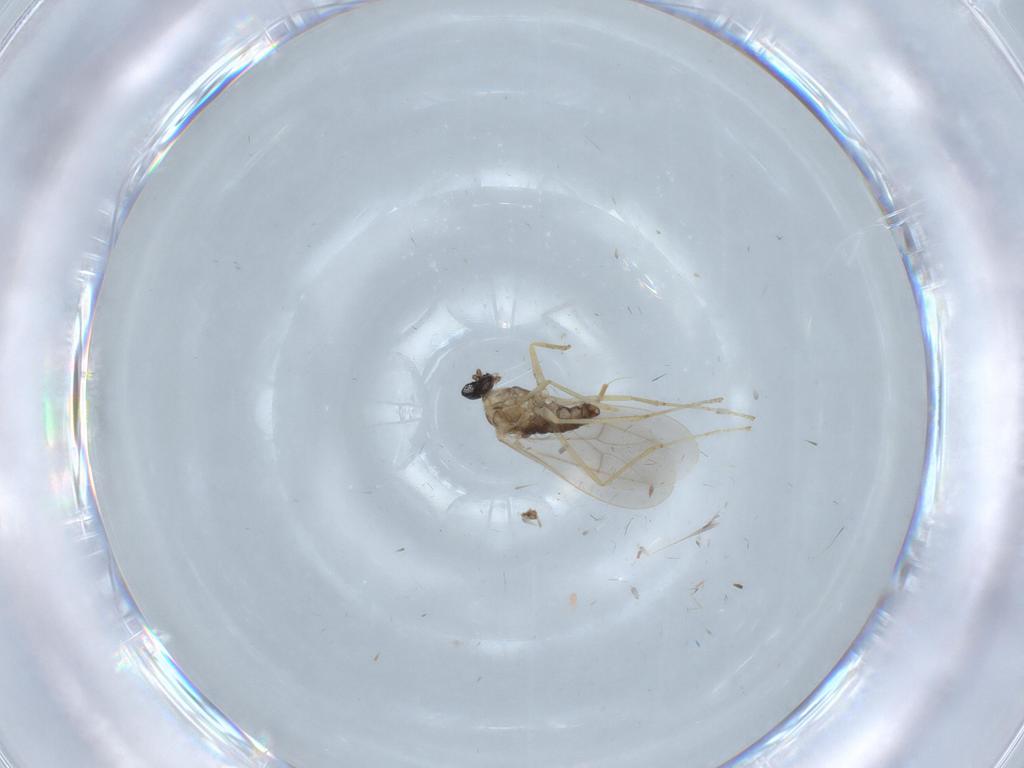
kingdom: Animalia
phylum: Arthropoda
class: Insecta
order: Diptera
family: Cecidomyiidae
